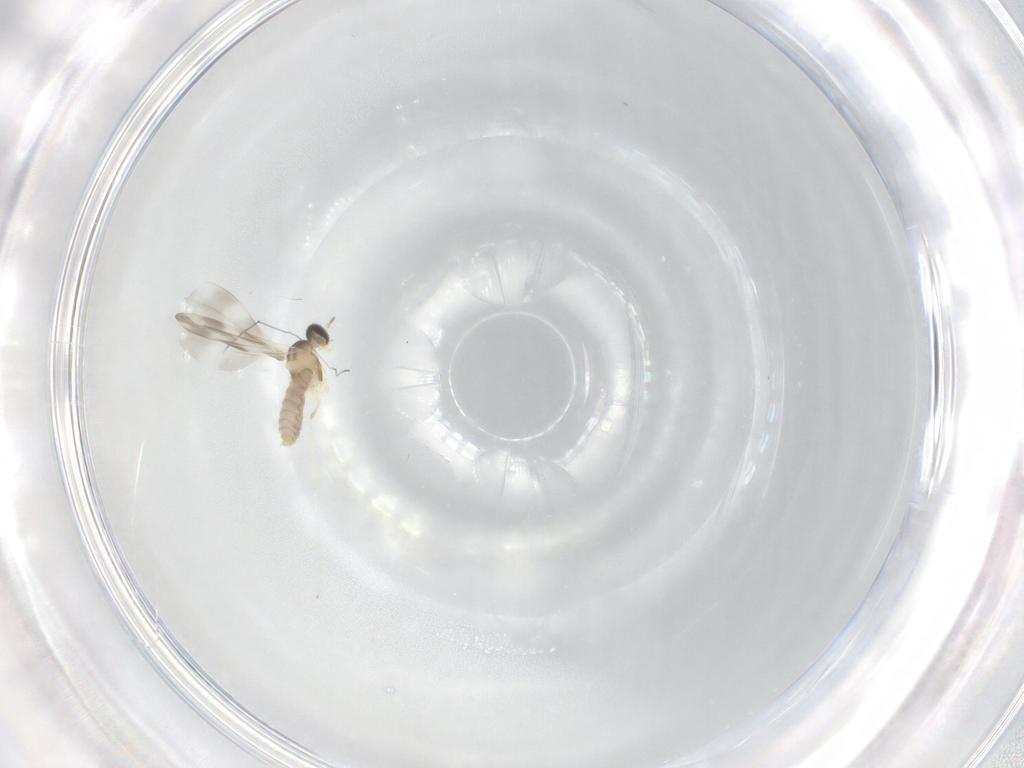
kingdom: Animalia
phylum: Arthropoda
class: Insecta
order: Diptera
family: Cecidomyiidae
